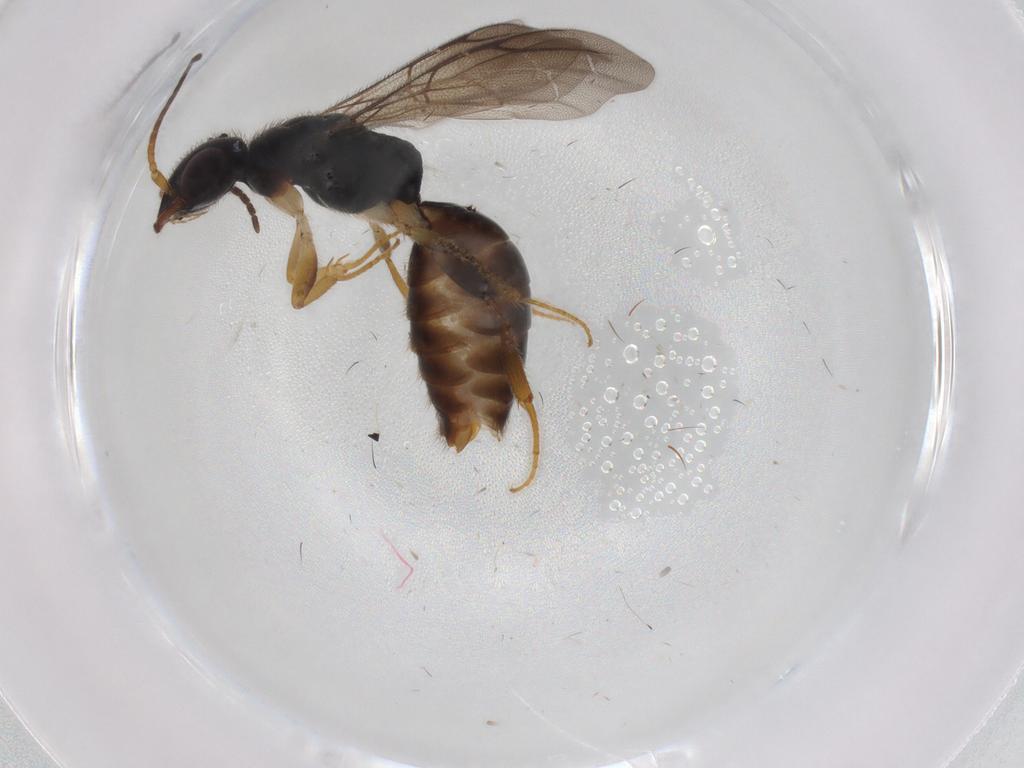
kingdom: Animalia
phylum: Arthropoda
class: Insecta
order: Hymenoptera
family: Bethylidae
